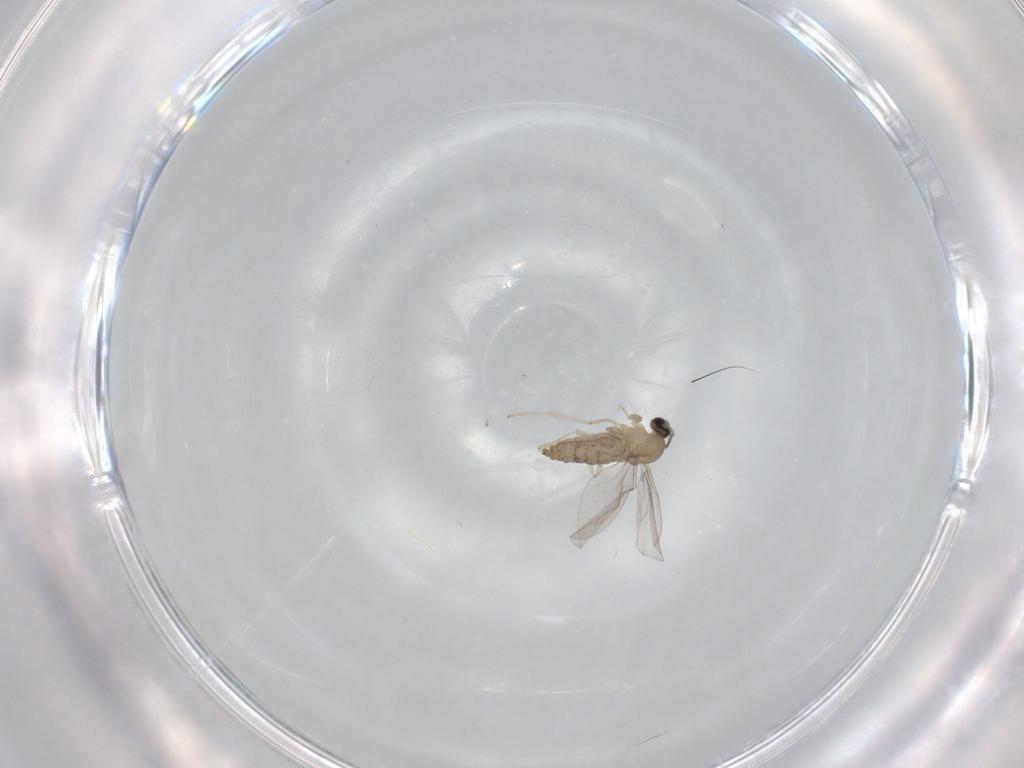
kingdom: Animalia
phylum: Arthropoda
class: Insecta
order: Diptera
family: Cecidomyiidae
